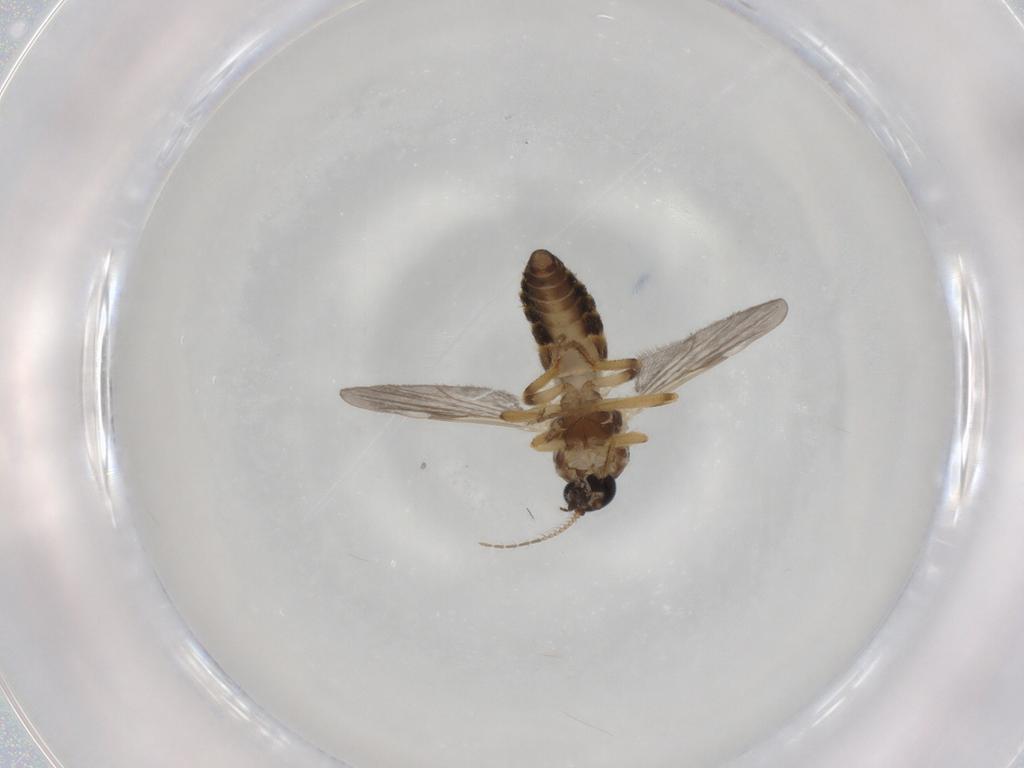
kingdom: Animalia
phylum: Arthropoda
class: Insecta
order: Diptera
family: Ceratopogonidae
